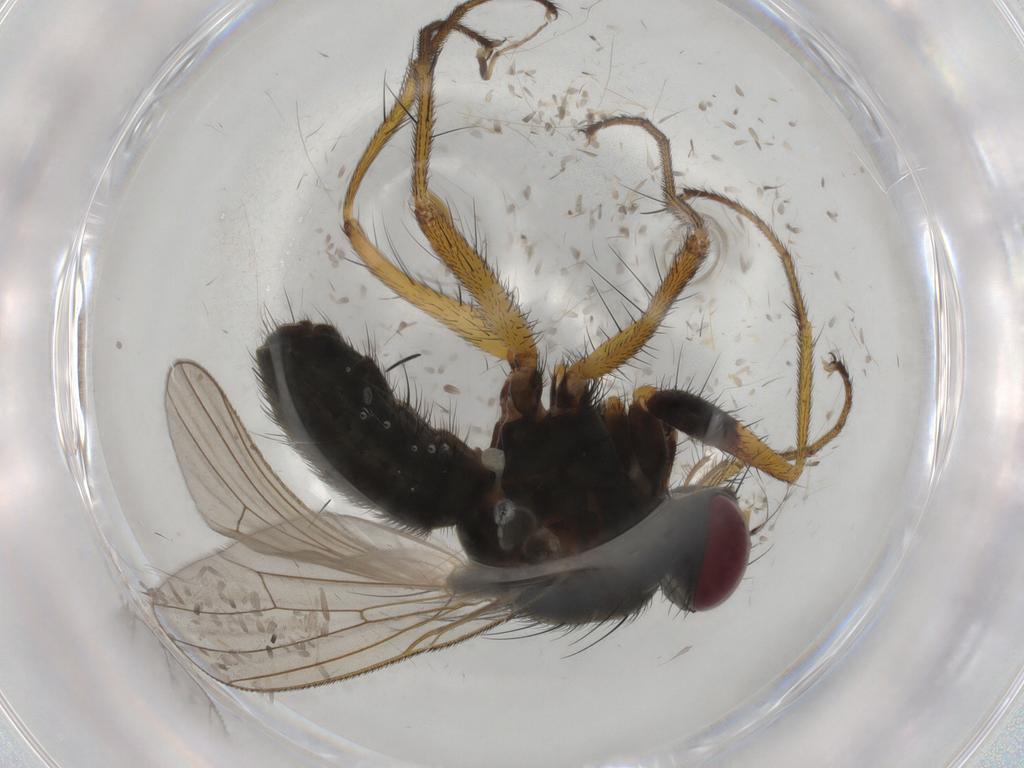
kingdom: Animalia
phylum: Arthropoda
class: Insecta
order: Diptera
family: Muscidae
